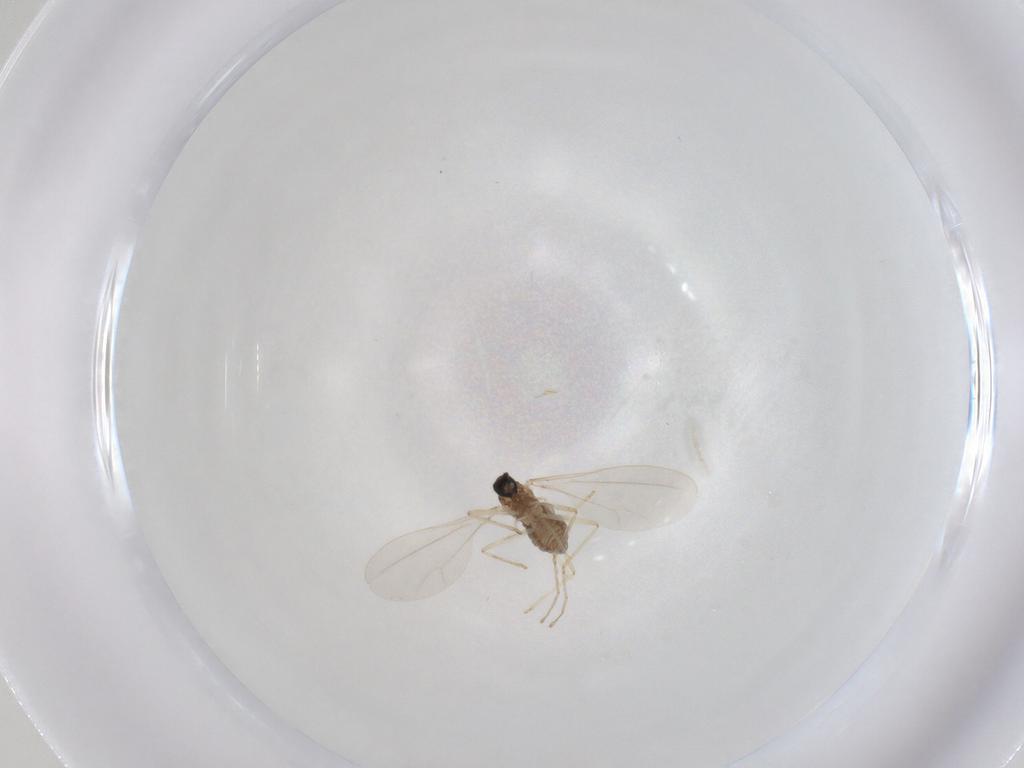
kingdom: Animalia
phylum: Arthropoda
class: Insecta
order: Diptera
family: Cecidomyiidae
